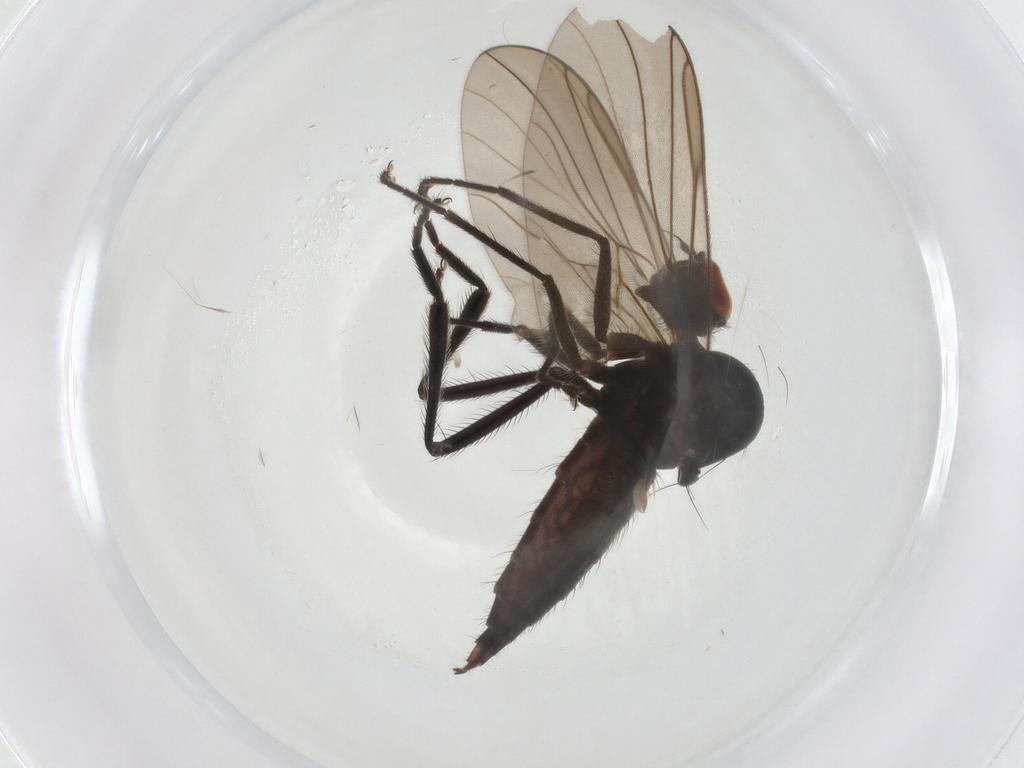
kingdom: Animalia
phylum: Arthropoda
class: Insecta
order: Diptera
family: Hybotidae
